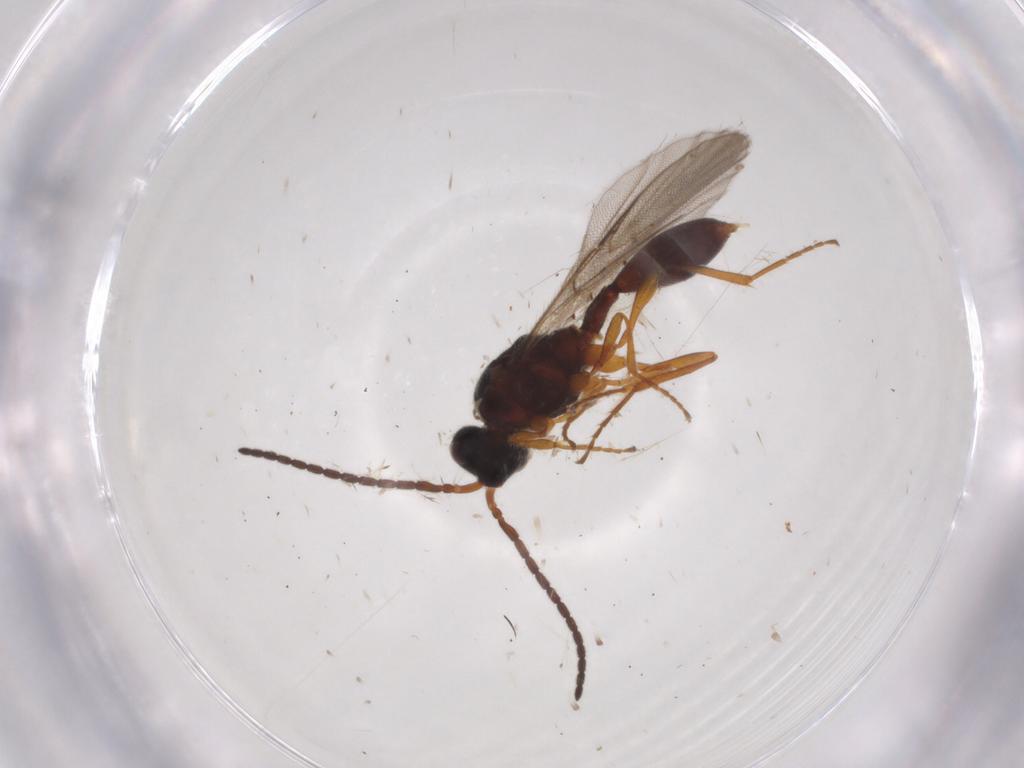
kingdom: Animalia
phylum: Arthropoda
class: Insecta
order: Hymenoptera
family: Diapriidae
